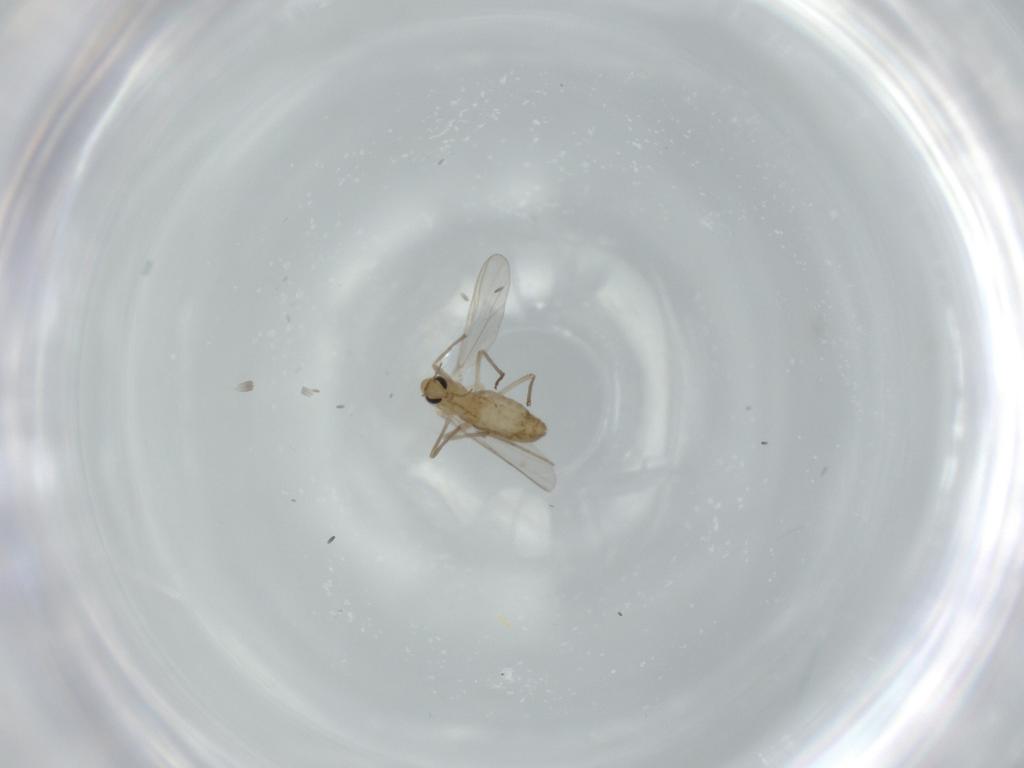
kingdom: Animalia
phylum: Arthropoda
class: Insecta
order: Diptera
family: Chironomidae
